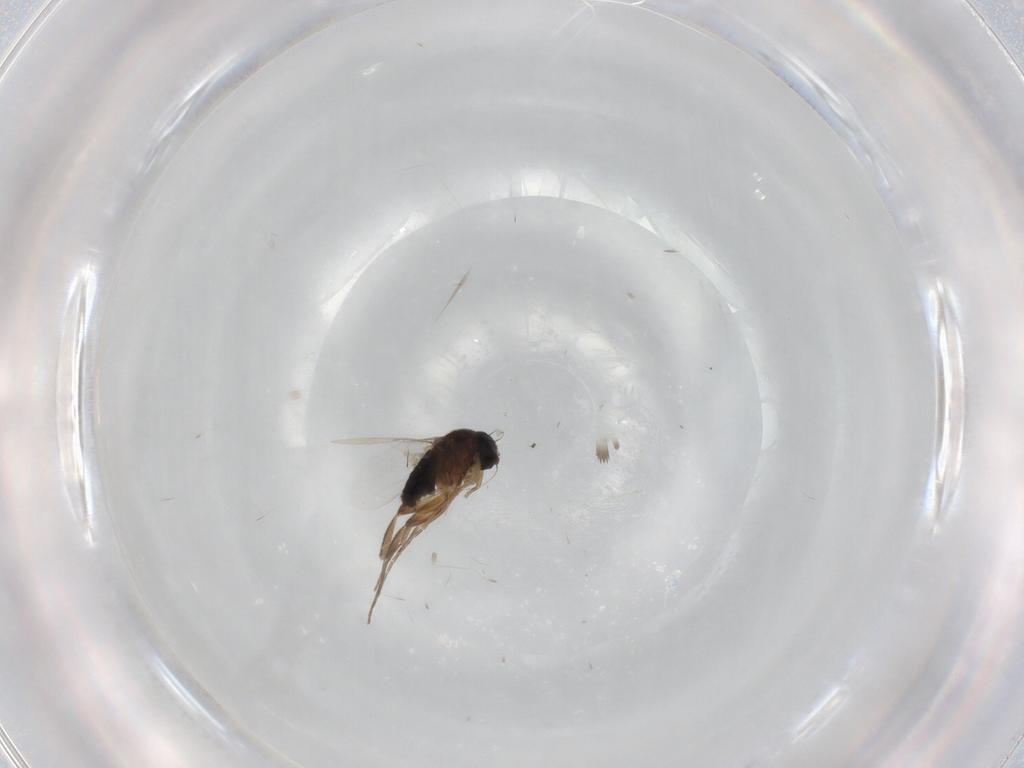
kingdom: Animalia
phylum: Arthropoda
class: Insecta
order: Diptera
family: Phoridae
